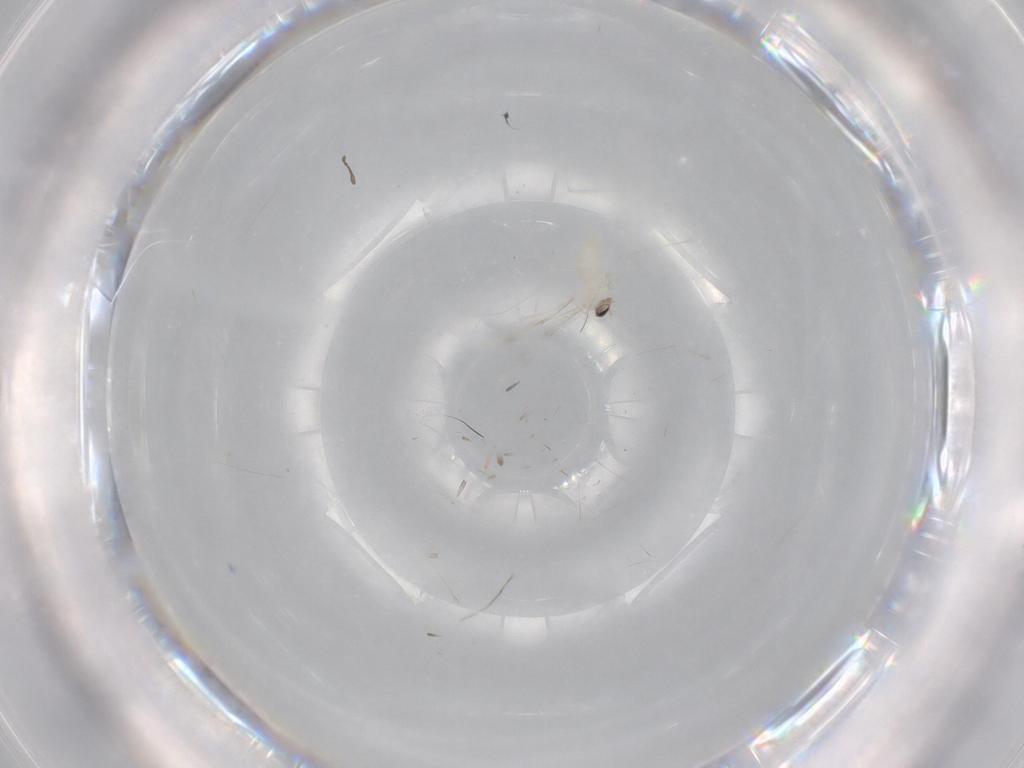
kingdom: Animalia
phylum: Arthropoda
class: Insecta
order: Diptera
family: Cecidomyiidae
